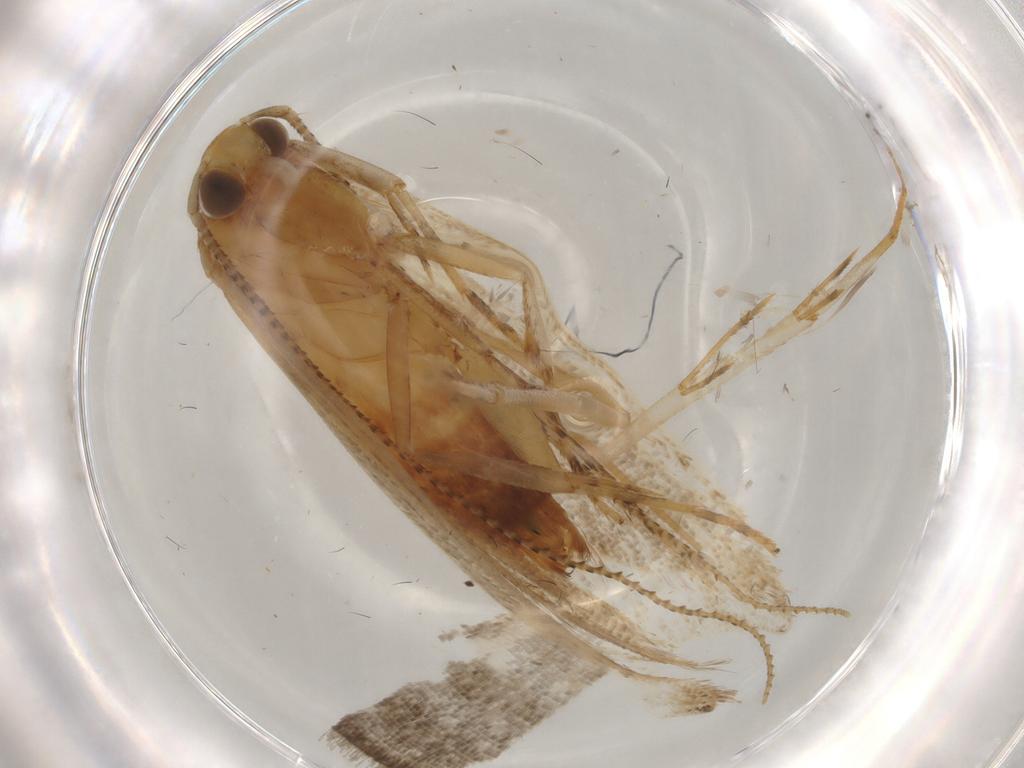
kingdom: Animalia
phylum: Arthropoda
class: Insecta
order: Lepidoptera
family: Lecithoceridae
